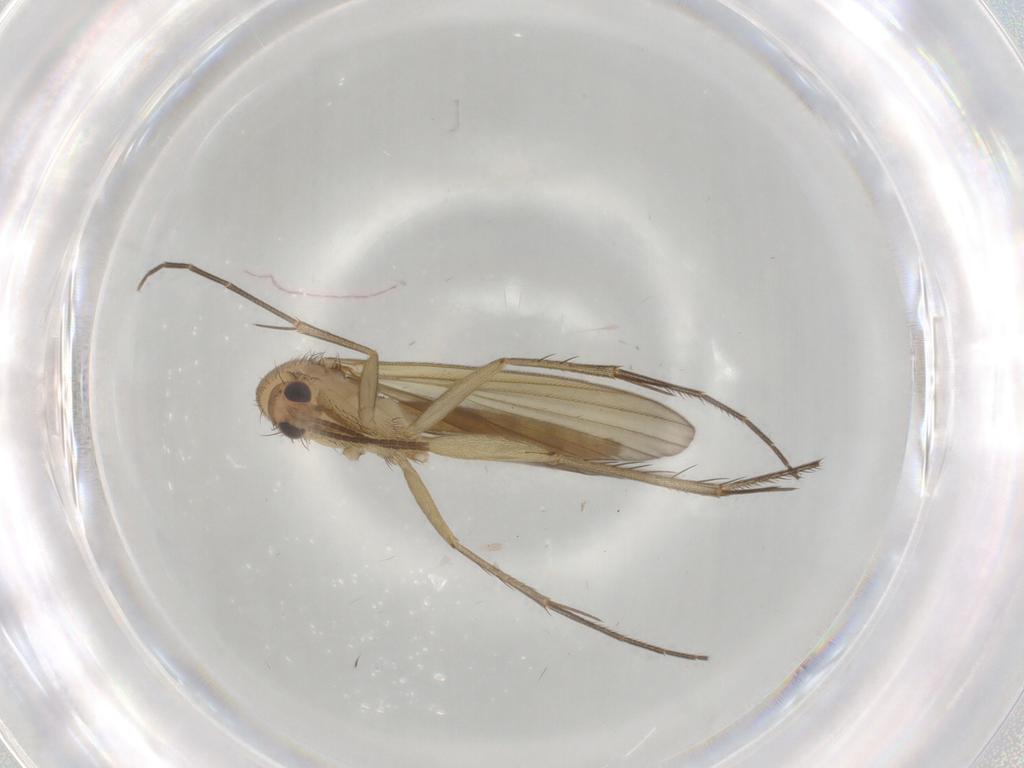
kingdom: Animalia
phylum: Arthropoda
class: Insecta
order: Diptera
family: Mycetophilidae
